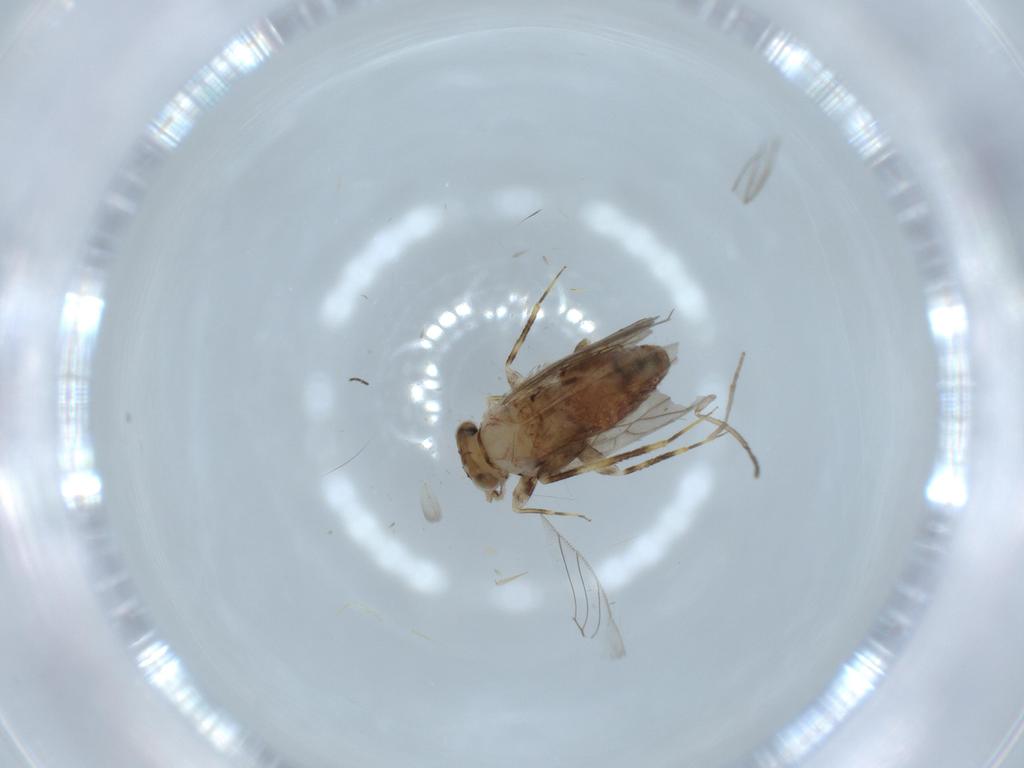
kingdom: Animalia
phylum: Arthropoda
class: Insecta
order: Psocodea
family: Lepidopsocidae
